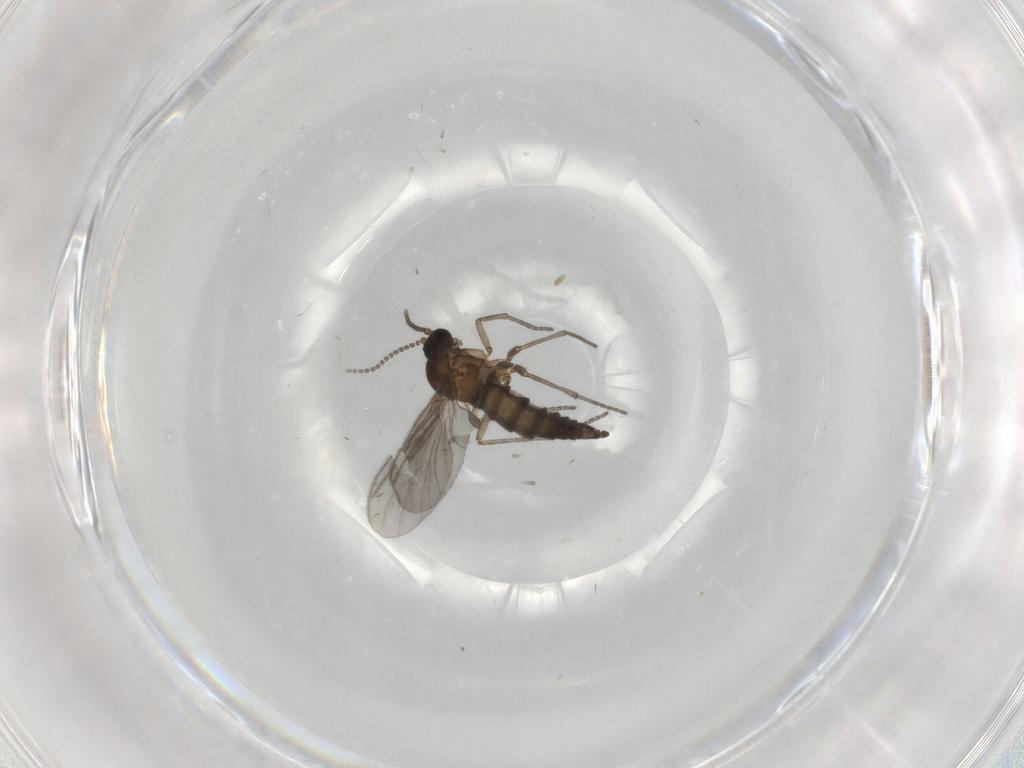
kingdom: Animalia
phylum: Arthropoda
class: Insecta
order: Diptera
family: Sciaridae
